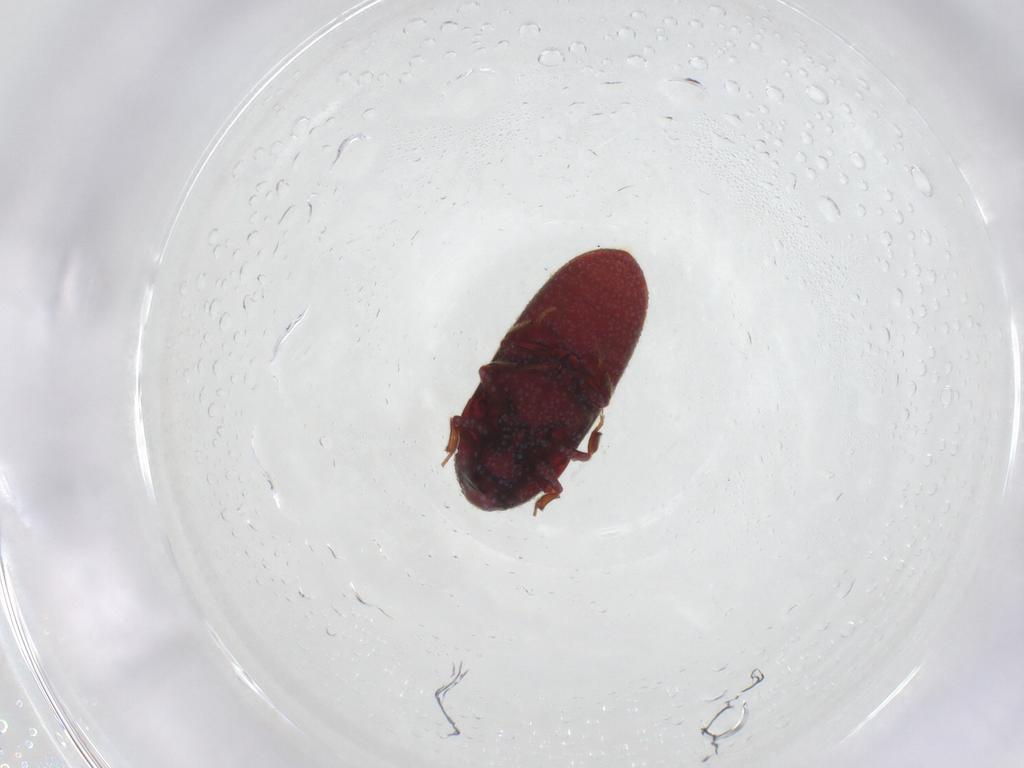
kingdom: Animalia
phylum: Arthropoda
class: Insecta
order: Coleoptera
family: Throscidae
